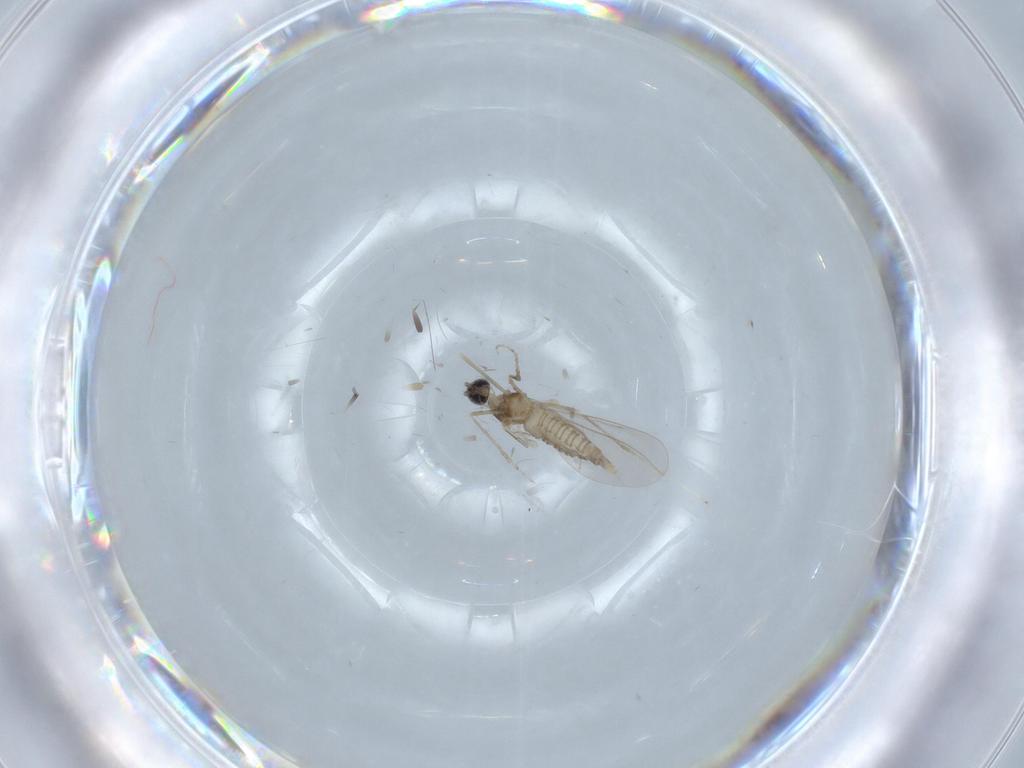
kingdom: Animalia
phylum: Arthropoda
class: Insecta
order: Diptera
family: Cecidomyiidae
